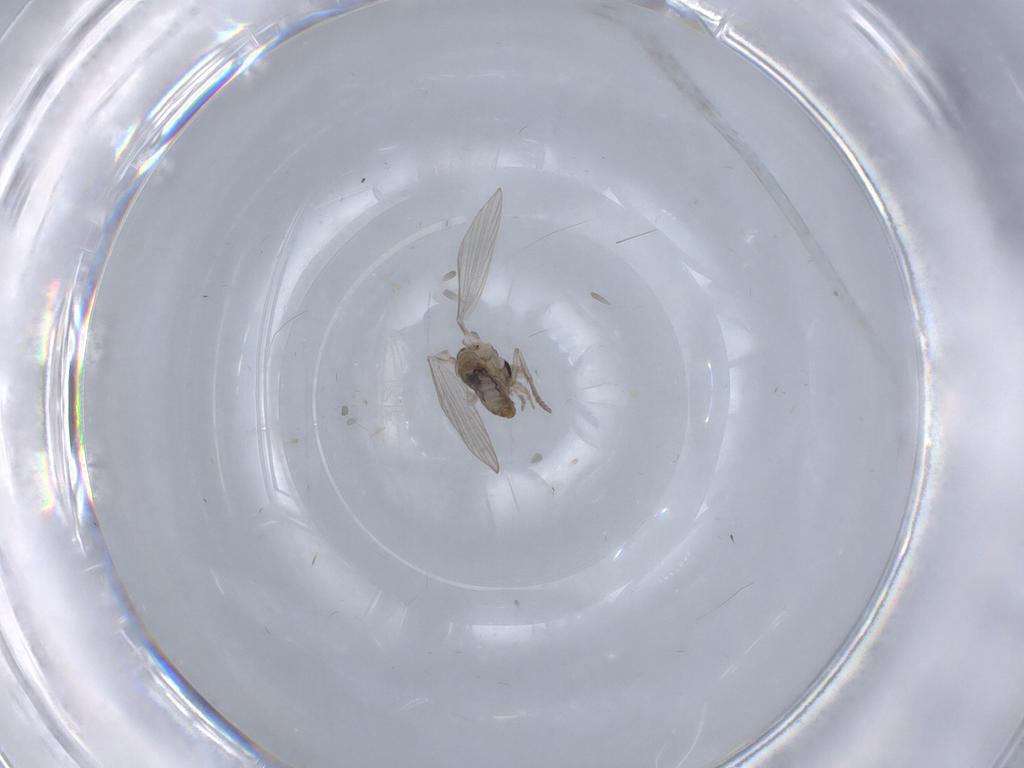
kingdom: Animalia
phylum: Arthropoda
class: Insecta
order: Diptera
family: Psychodidae
